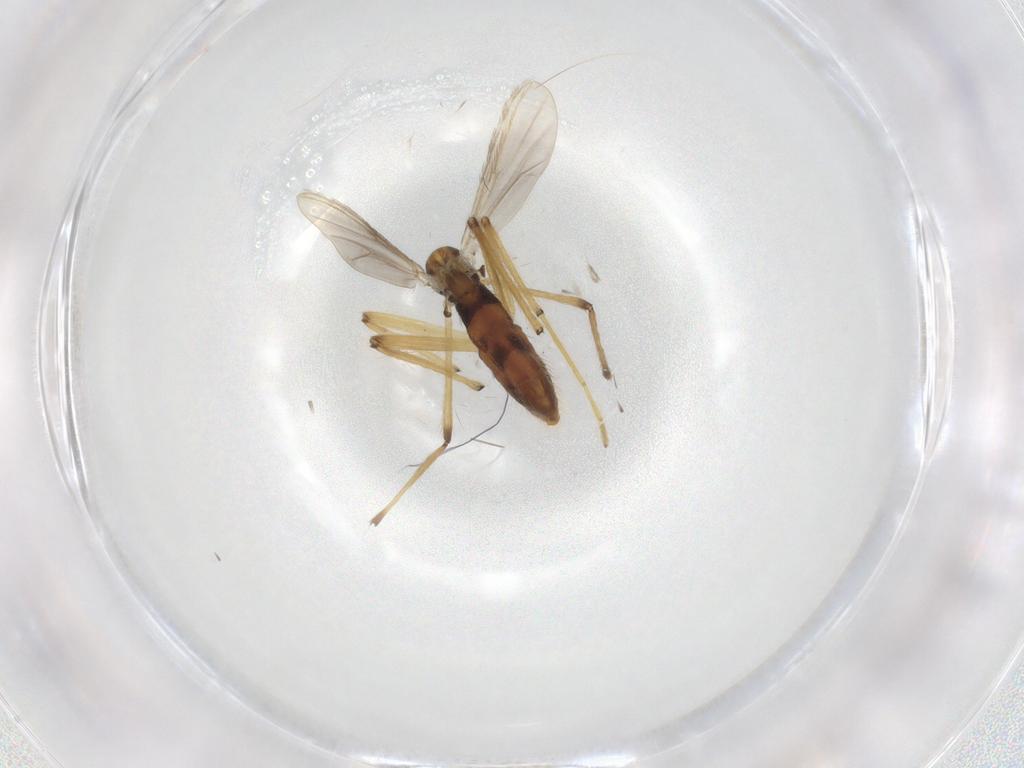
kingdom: Animalia
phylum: Arthropoda
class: Insecta
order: Diptera
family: Chironomidae
